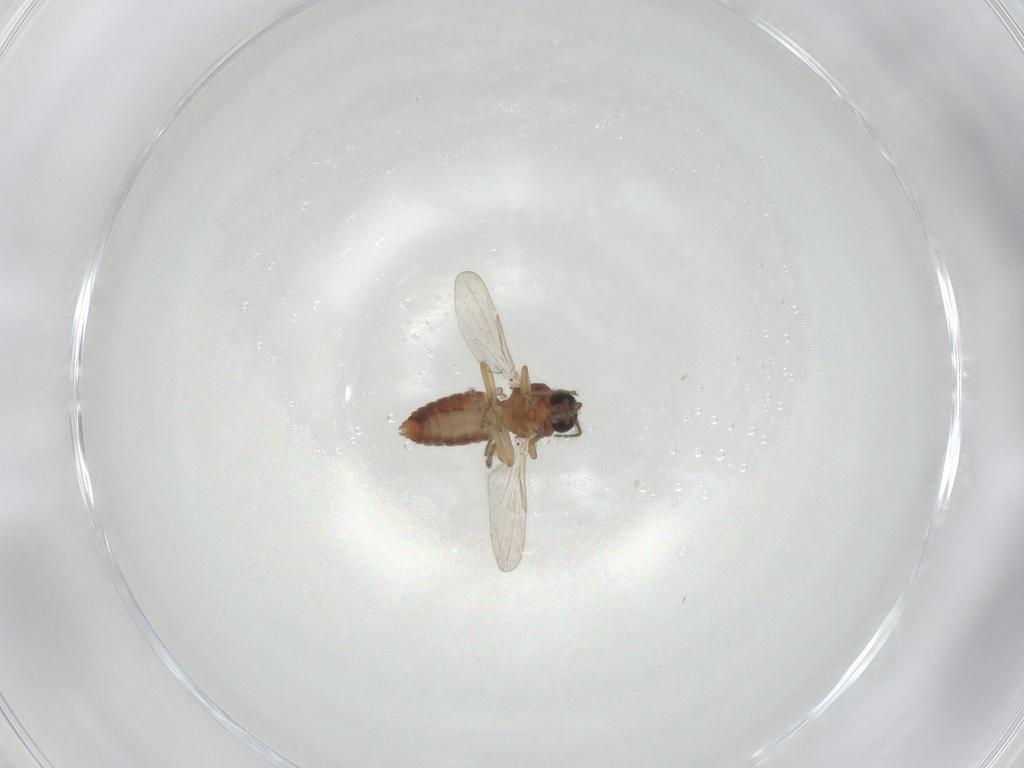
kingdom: Animalia
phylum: Arthropoda
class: Insecta
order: Diptera
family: Ceratopogonidae
